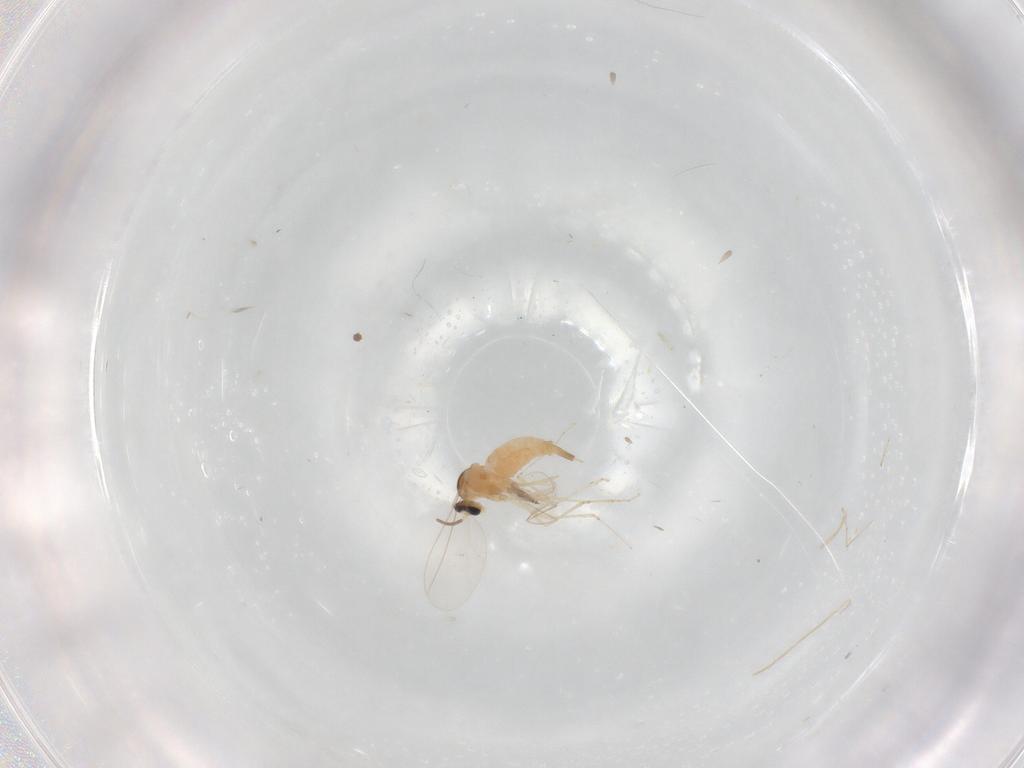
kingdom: Animalia
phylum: Arthropoda
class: Insecta
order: Diptera
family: Cecidomyiidae
